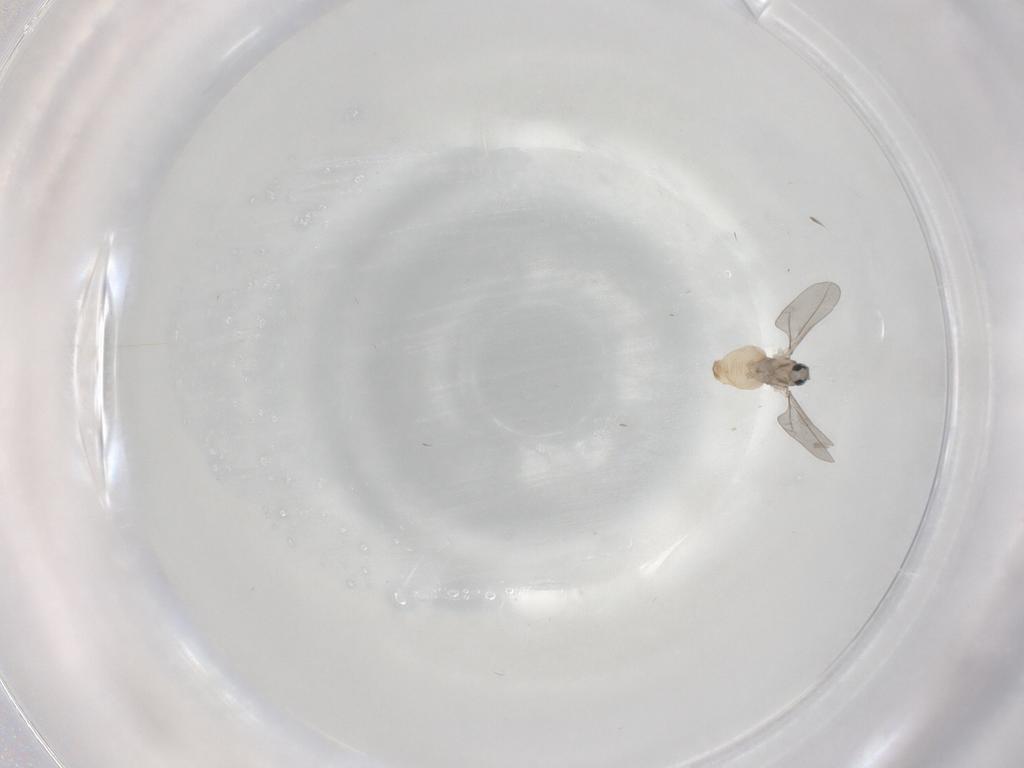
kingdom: Animalia
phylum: Arthropoda
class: Insecta
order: Diptera
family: Cecidomyiidae
